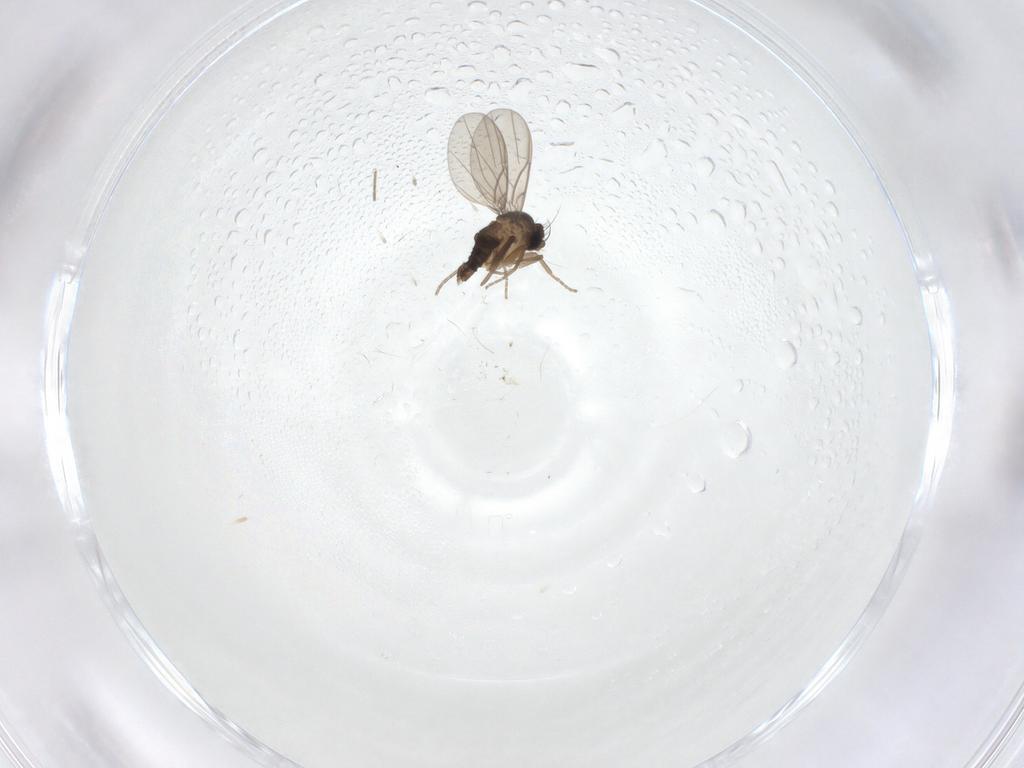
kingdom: Animalia
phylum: Arthropoda
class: Insecta
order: Diptera
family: Phoridae
